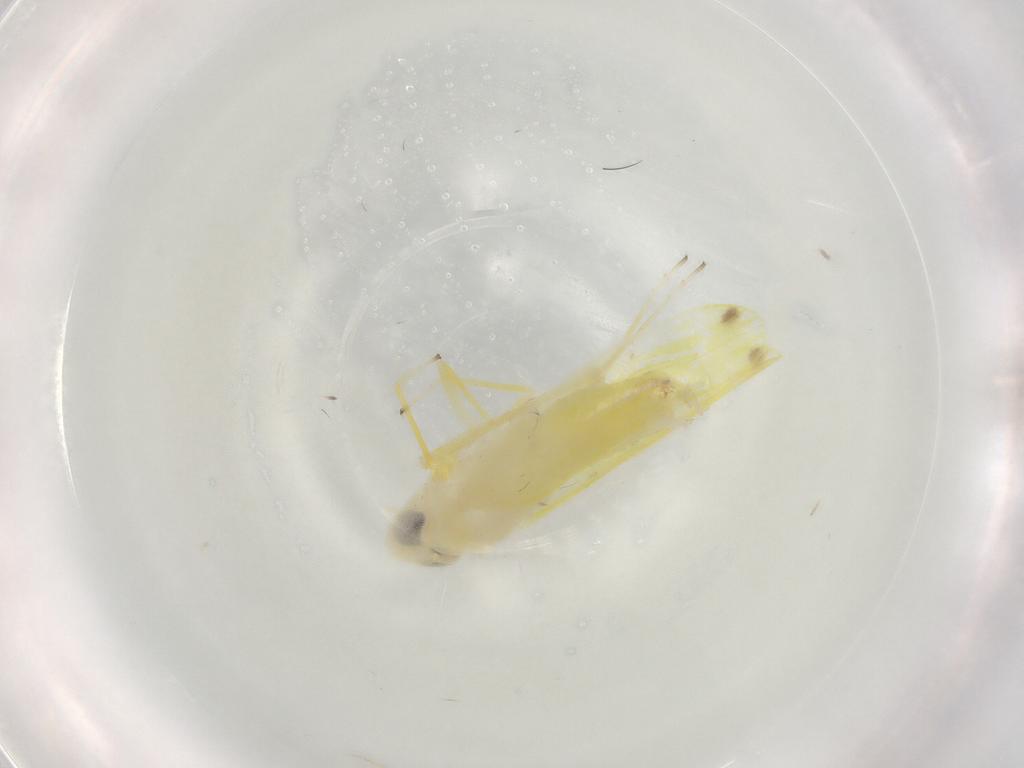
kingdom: Animalia
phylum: Arthropoda
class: Insecta
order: Hemiptera
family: Cicadellidae
